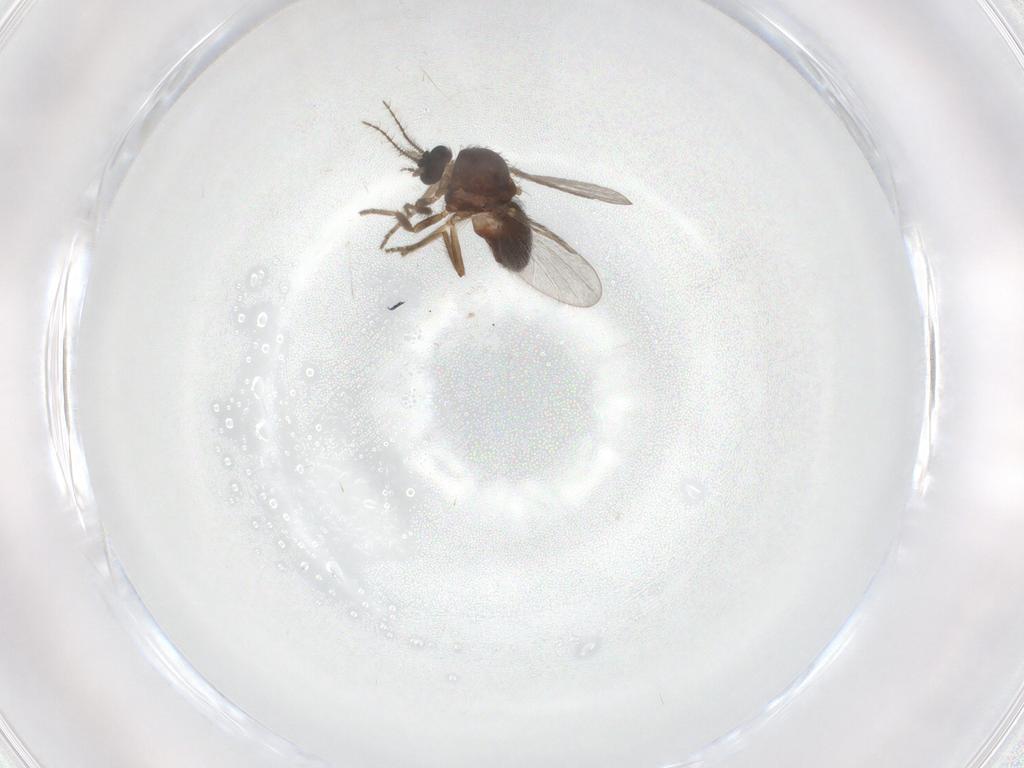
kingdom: Animalia
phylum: Arthropoda
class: Insecta
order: Diptera
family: Ceratopogonidae
